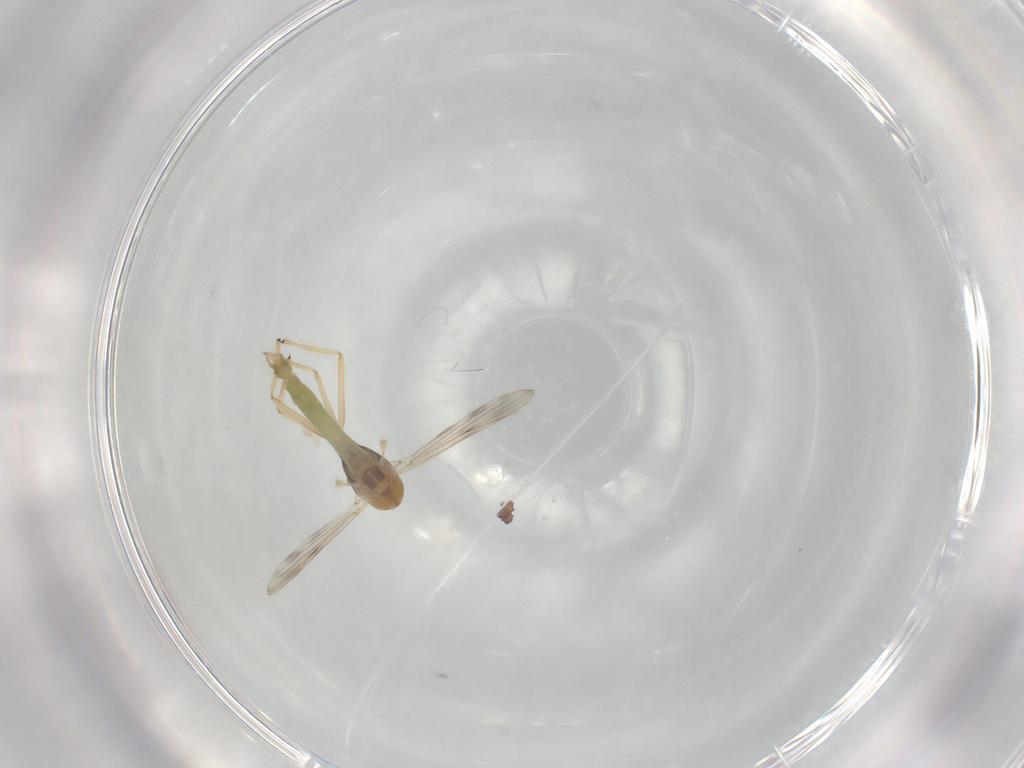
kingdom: Animalia
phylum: Arthropoda
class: Insecta
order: Diptera
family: Chironomidae
